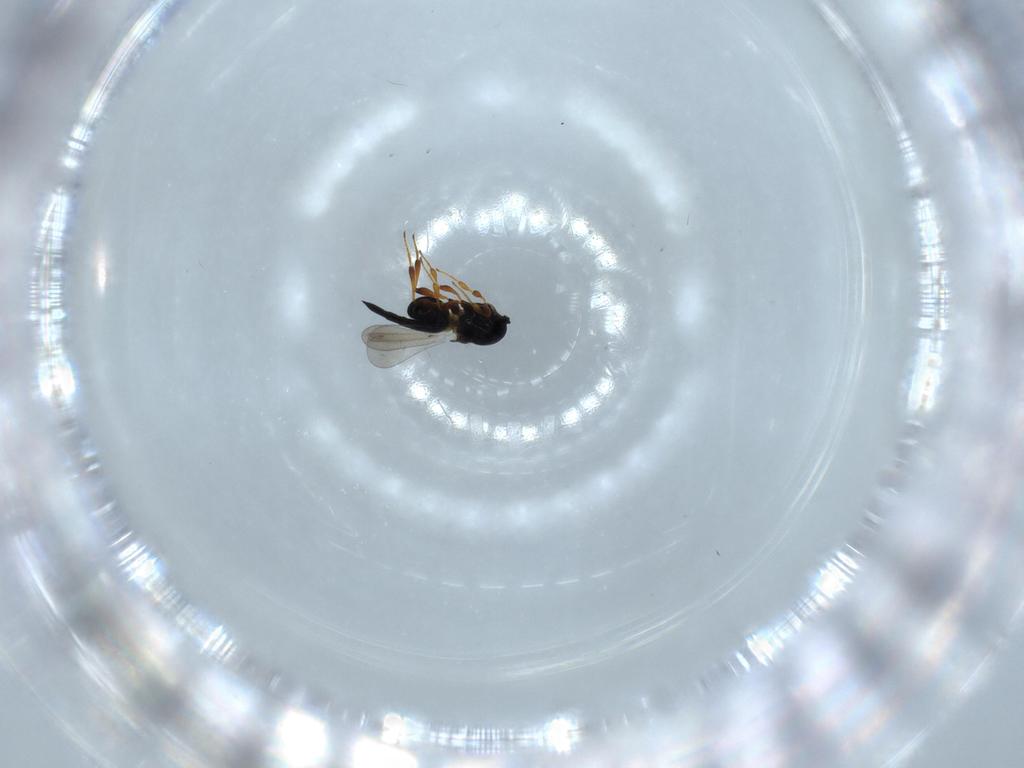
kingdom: Animalia
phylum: Arthropoda
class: Insecta
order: Hymenoptera
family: Platygastridae
